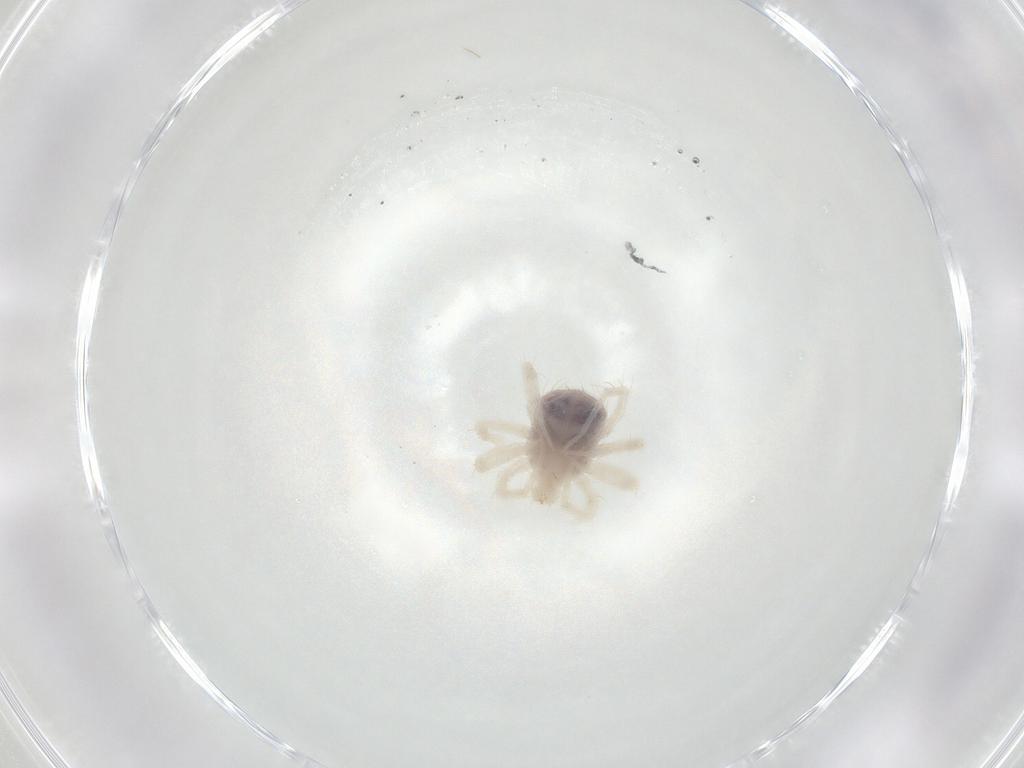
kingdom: Animalia
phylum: Arthropoda
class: Arachnida
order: Trombidiformes
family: Anystidae
